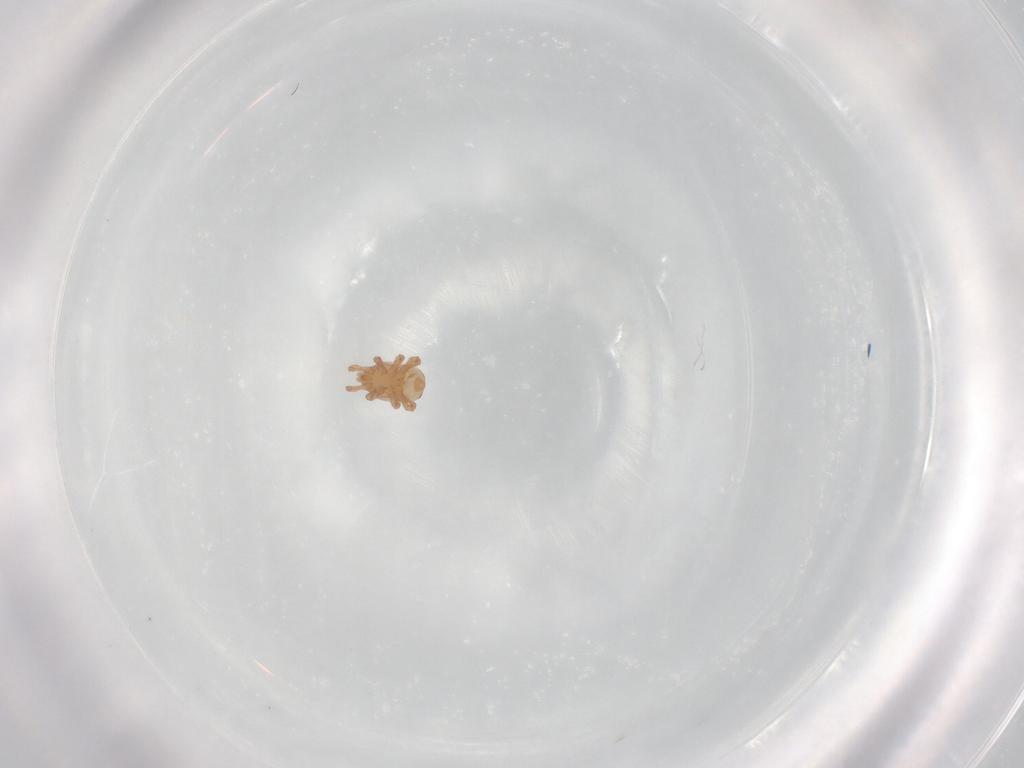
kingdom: Animalia
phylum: Arthropoda
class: Arachnida
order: Mesostigmata
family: Halolaelapidae
